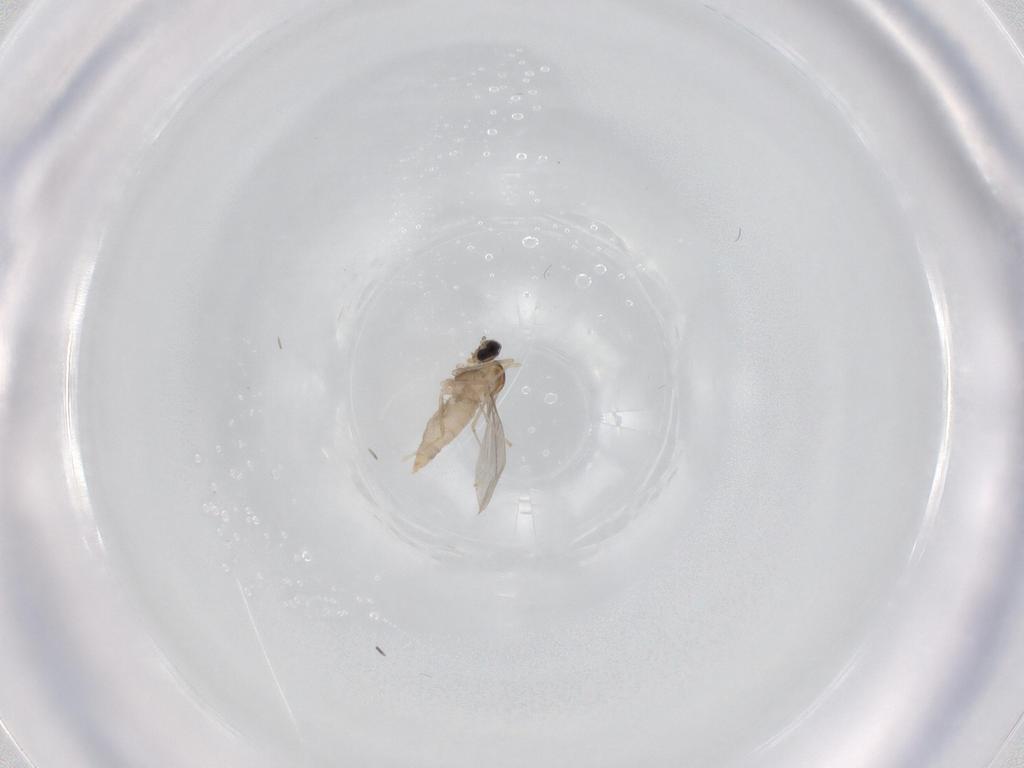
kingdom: Animalia
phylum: Arthropoda
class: Insecta
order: Diptera
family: Cecidomyiidae
